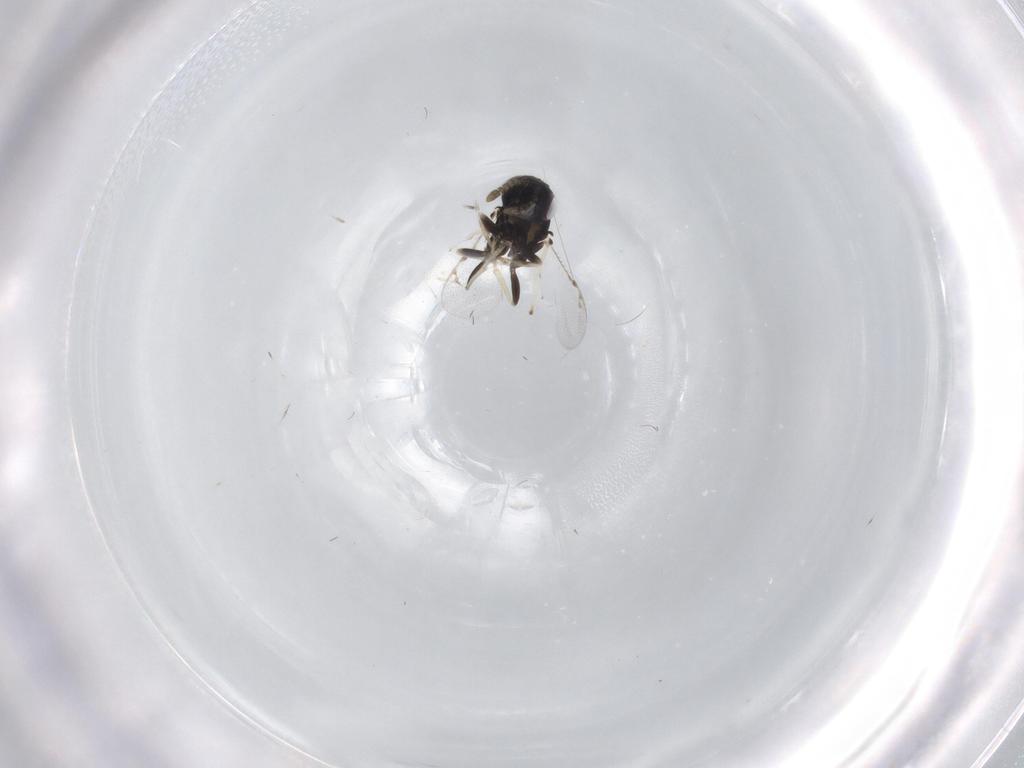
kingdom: Animalia
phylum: Arthropoda
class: Insecta
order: Hymenoptera
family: Pirenidae
